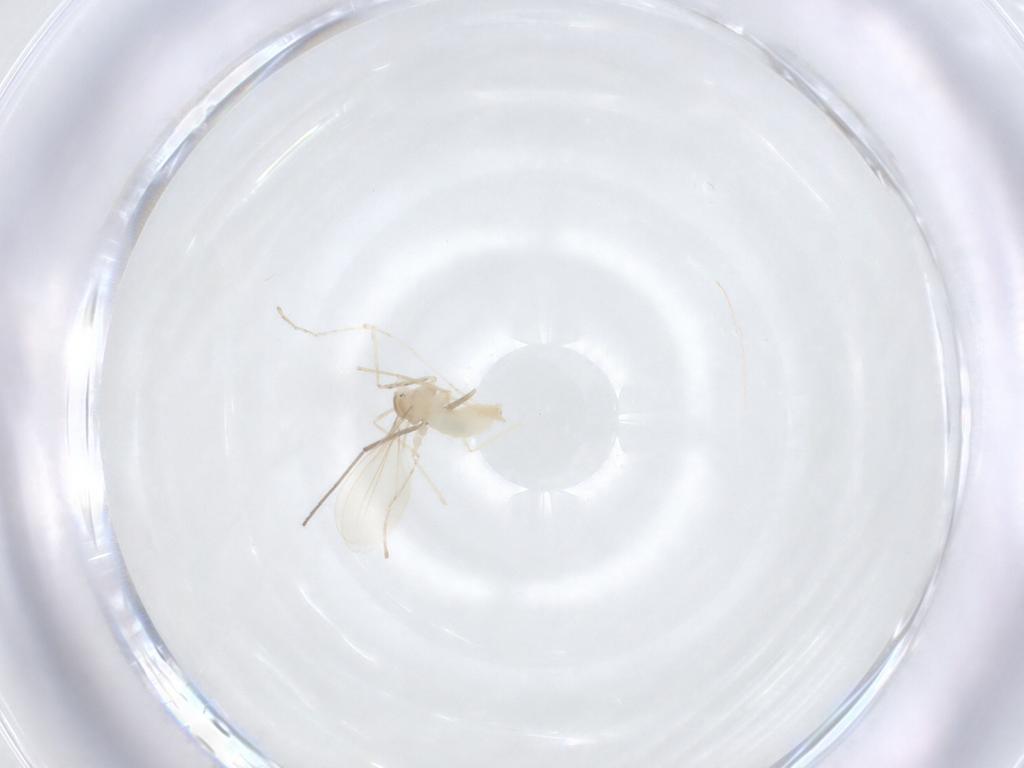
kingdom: Animalia
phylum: Arthropoda
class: Insecta
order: Diptera
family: Cecidomyiidae
